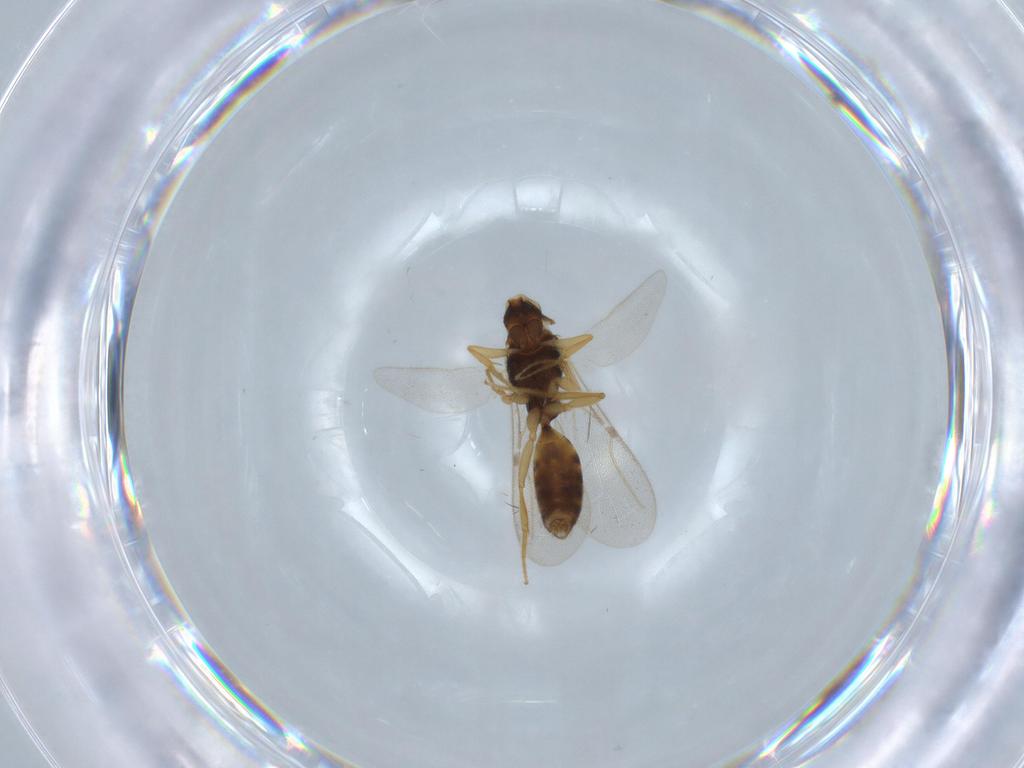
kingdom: Animalia
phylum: Arthropoda
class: Insecta
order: Hymenoptera
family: Bethylidae
